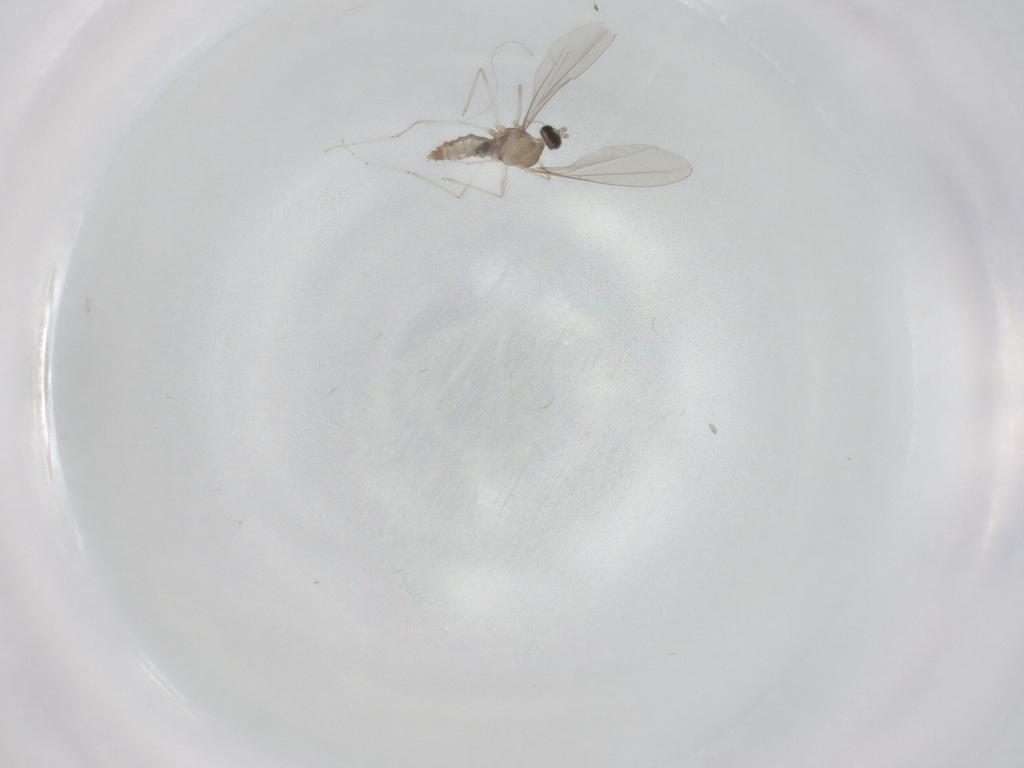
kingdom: Animalia
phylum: Arthropoda
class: Insecta
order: Diptera
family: Cecidomyiidae
